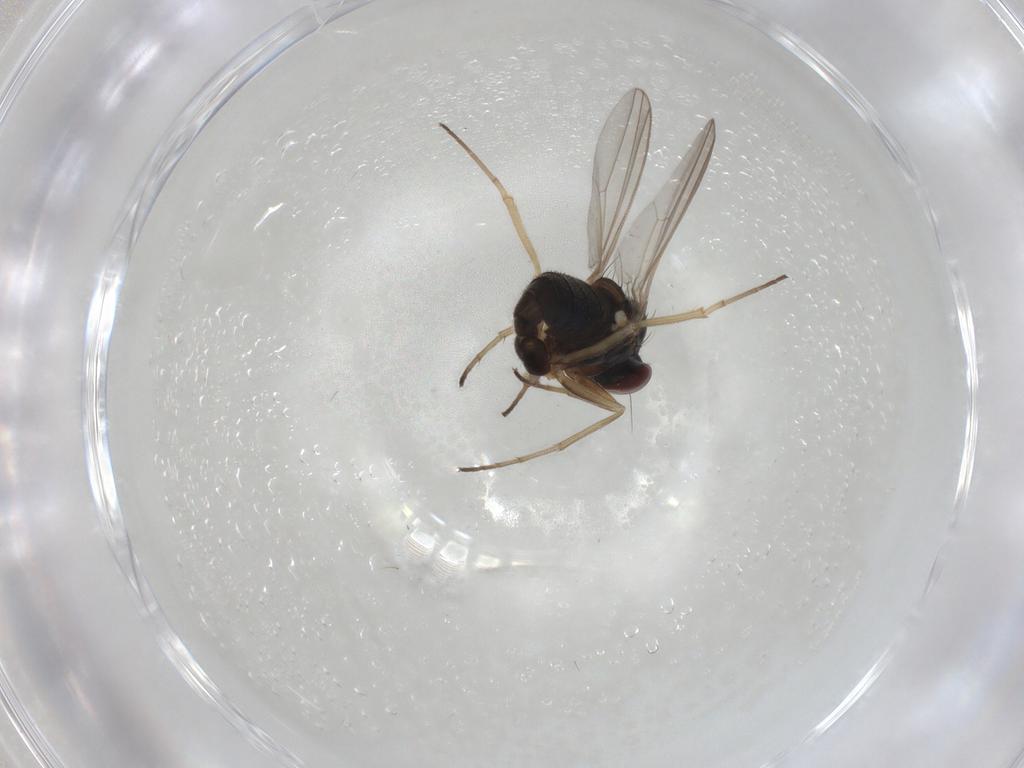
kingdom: Animalia
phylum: Arthropoda
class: Insecta
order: Diptera
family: Dolichopodidae
